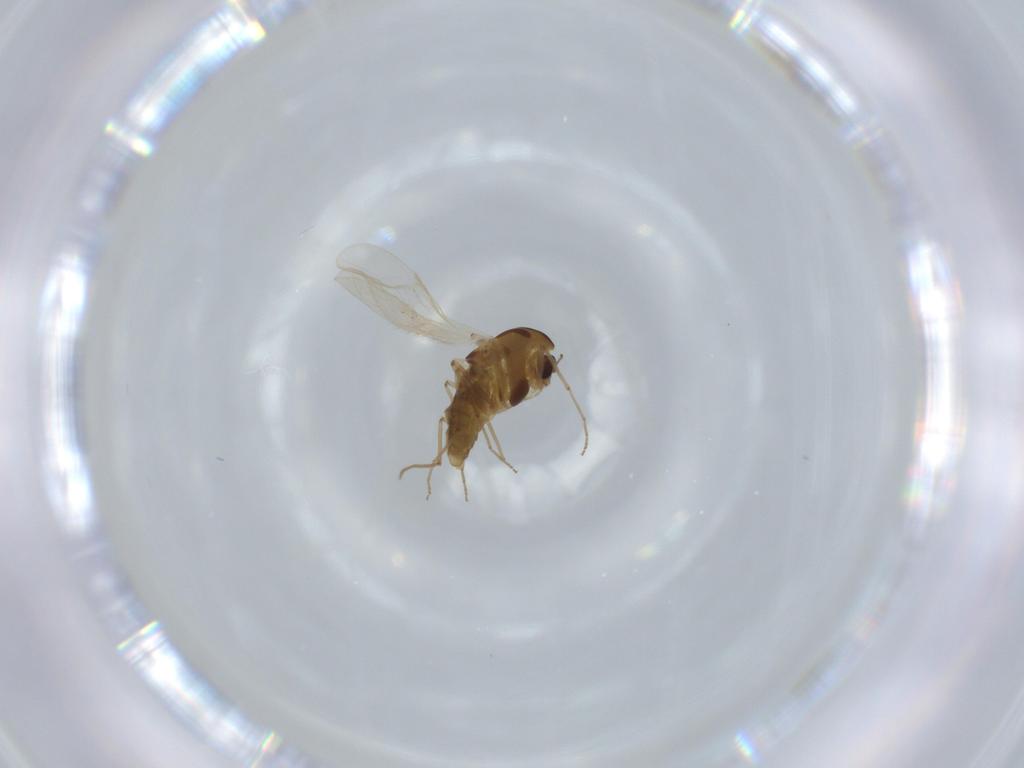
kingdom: Animalia
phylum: Arthropoda
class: Insecta
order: Diptera
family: Chironomidae
